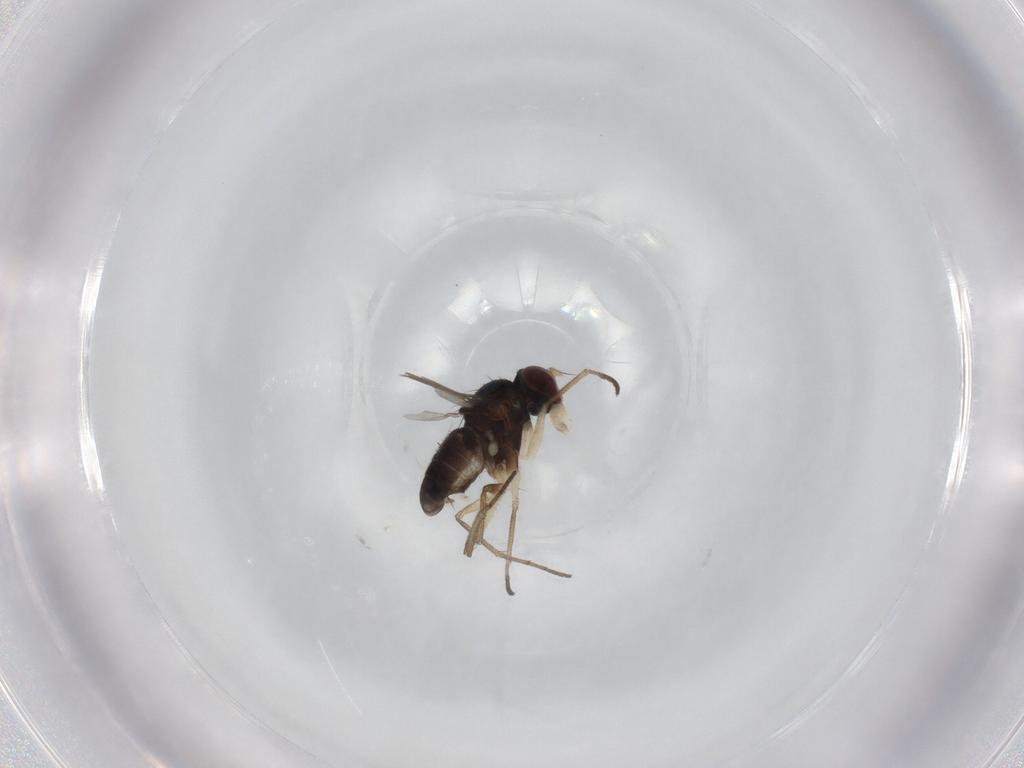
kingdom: Animalia
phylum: Arthropoda
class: Insecta
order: Diptera
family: Dolichopodidae
